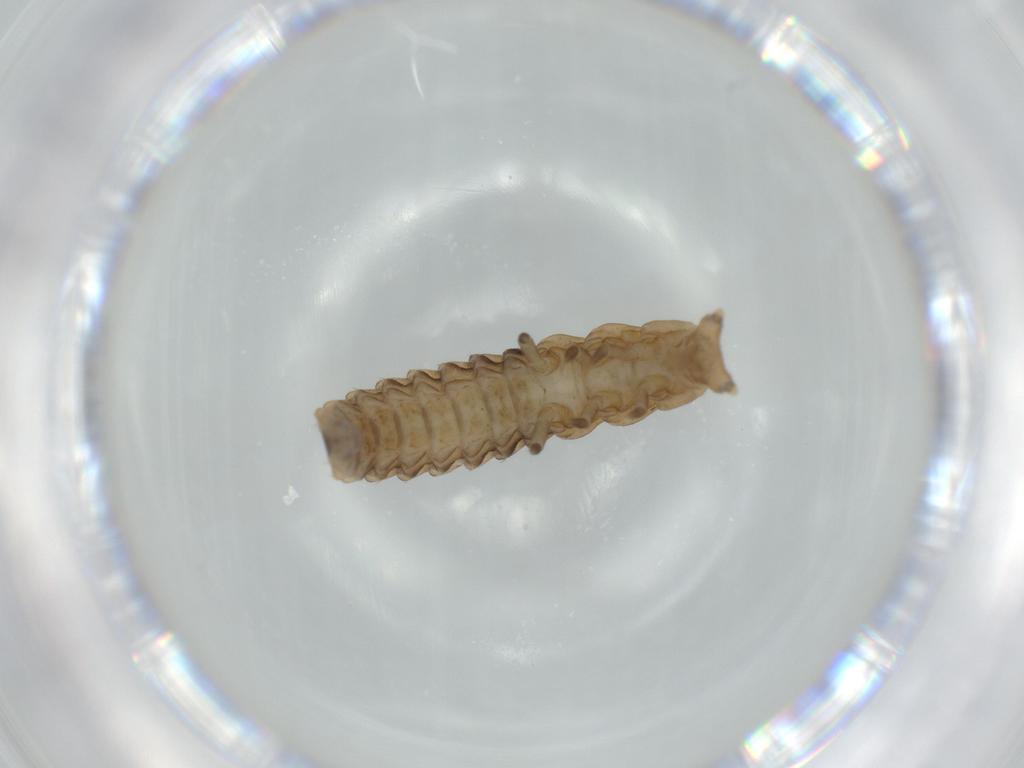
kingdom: Animalia
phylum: Arthropoda
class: Insecta
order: Coleoptera
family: Lycidae
